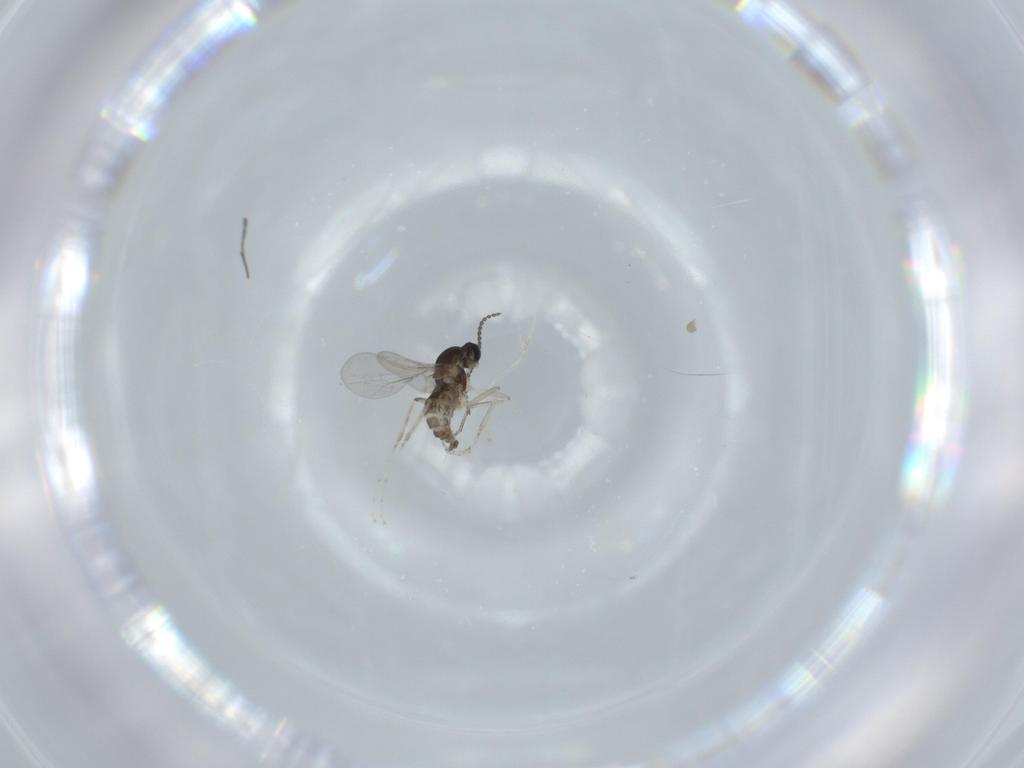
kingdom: Animalia
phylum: Arthropoda
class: Insecta
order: Diptera
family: Cecidomyiidae
